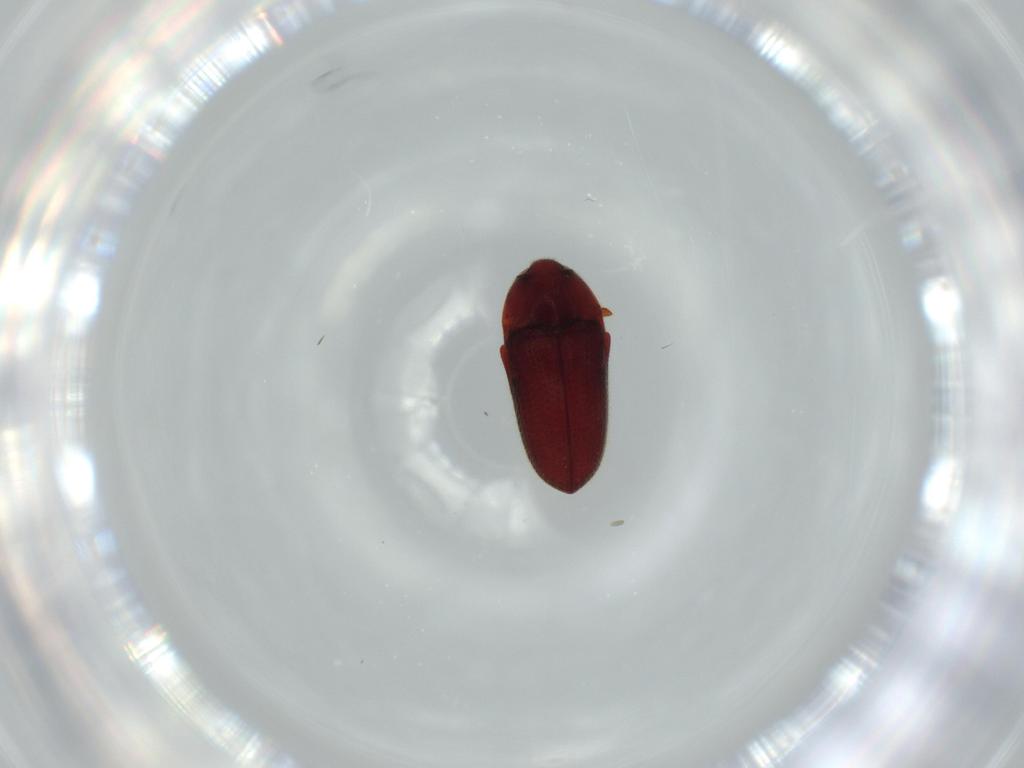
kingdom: Animalia
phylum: Arthropoda
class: Insecta
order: Coleoptera
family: Throscidae
